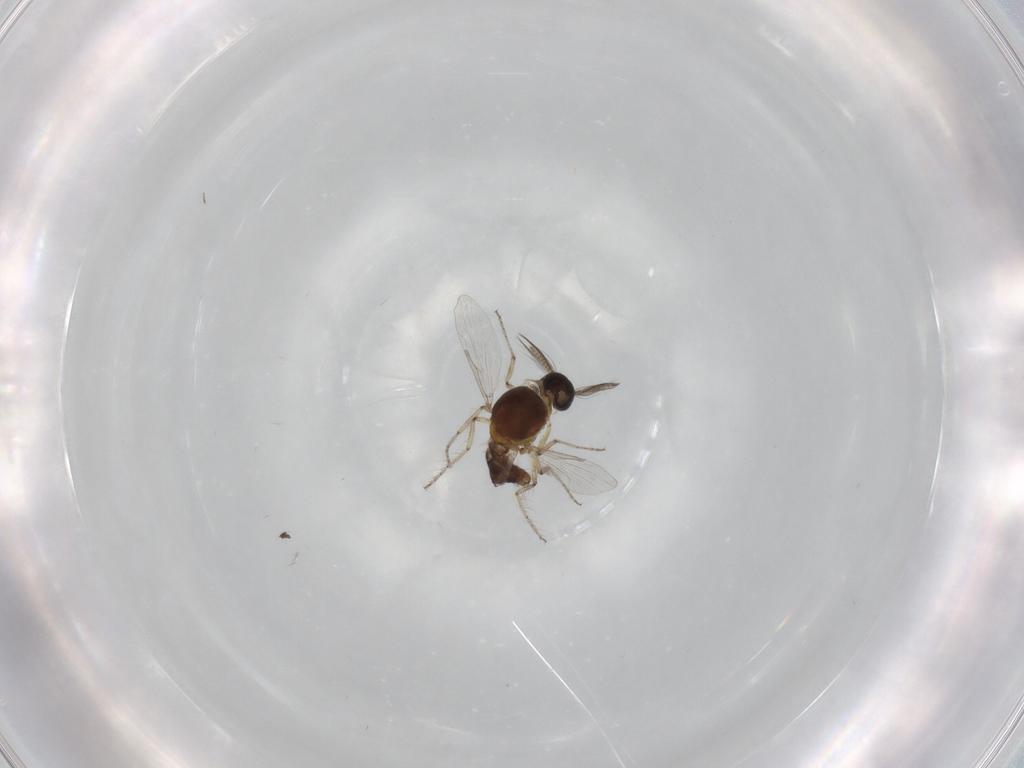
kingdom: Animalia
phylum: Arthropoda
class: Insecta
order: Diptera
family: Ceratopogonidae
